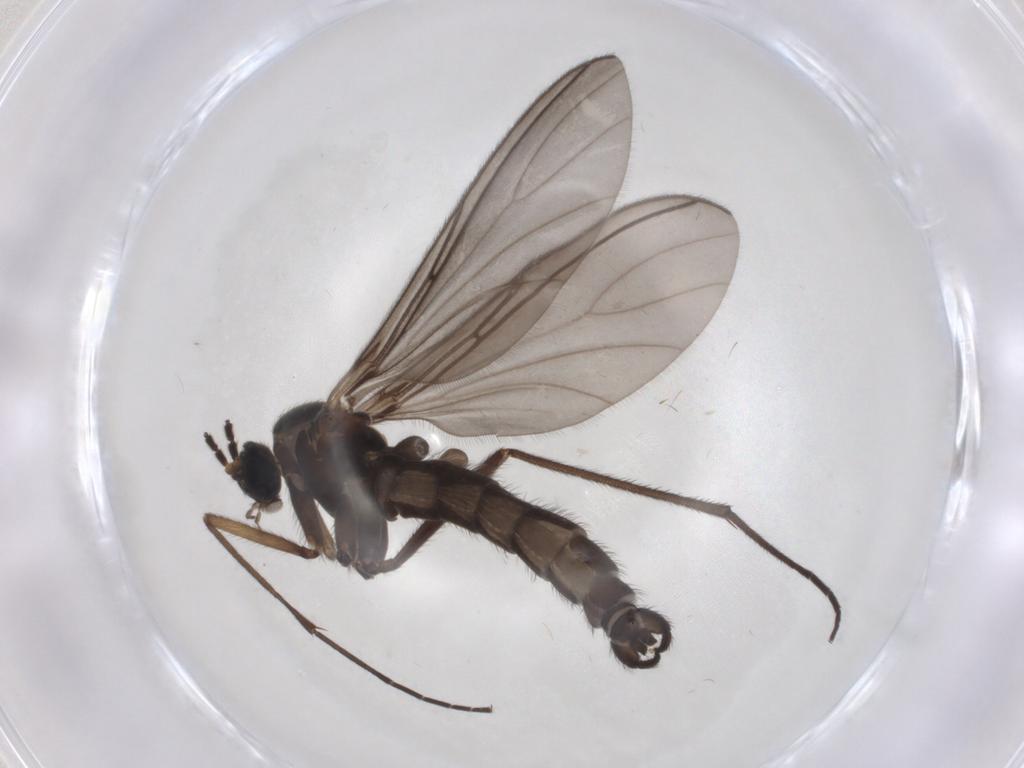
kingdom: Animalia
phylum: Arthropoda
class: Insecta
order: Diptera
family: Sciaridae
